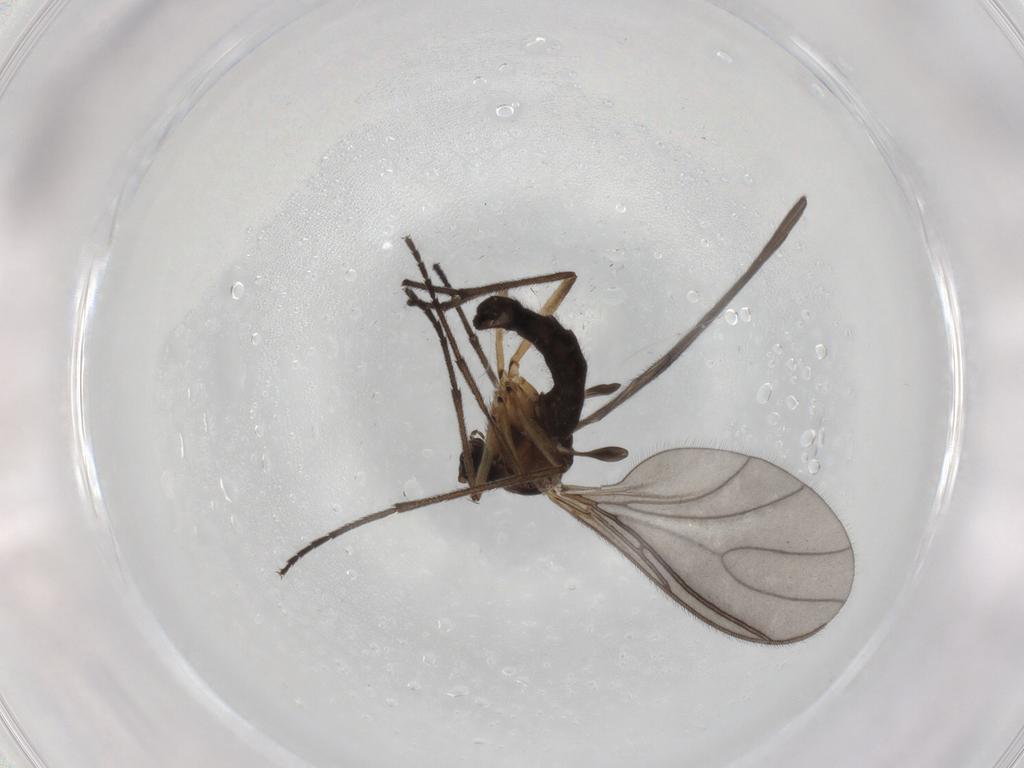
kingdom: Animalia
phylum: Arthropoda
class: Insecta
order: Diptera
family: Sciaridae
